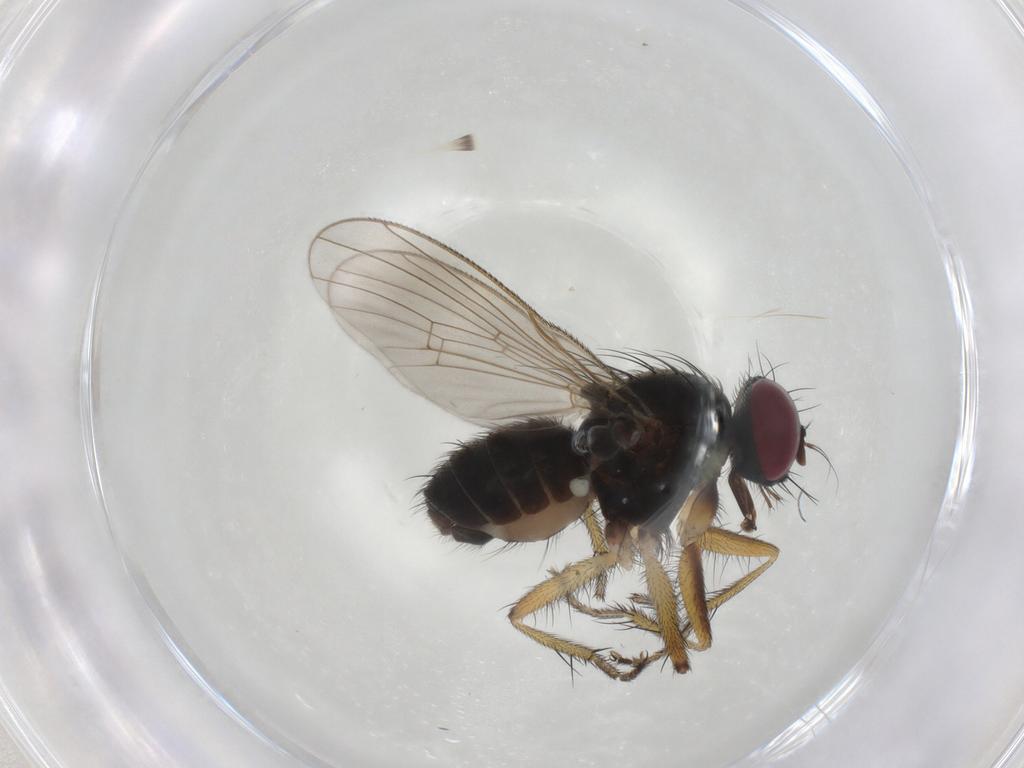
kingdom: Animalia
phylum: Arthropoda
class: Insecta
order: Diptera
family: Muscidae
